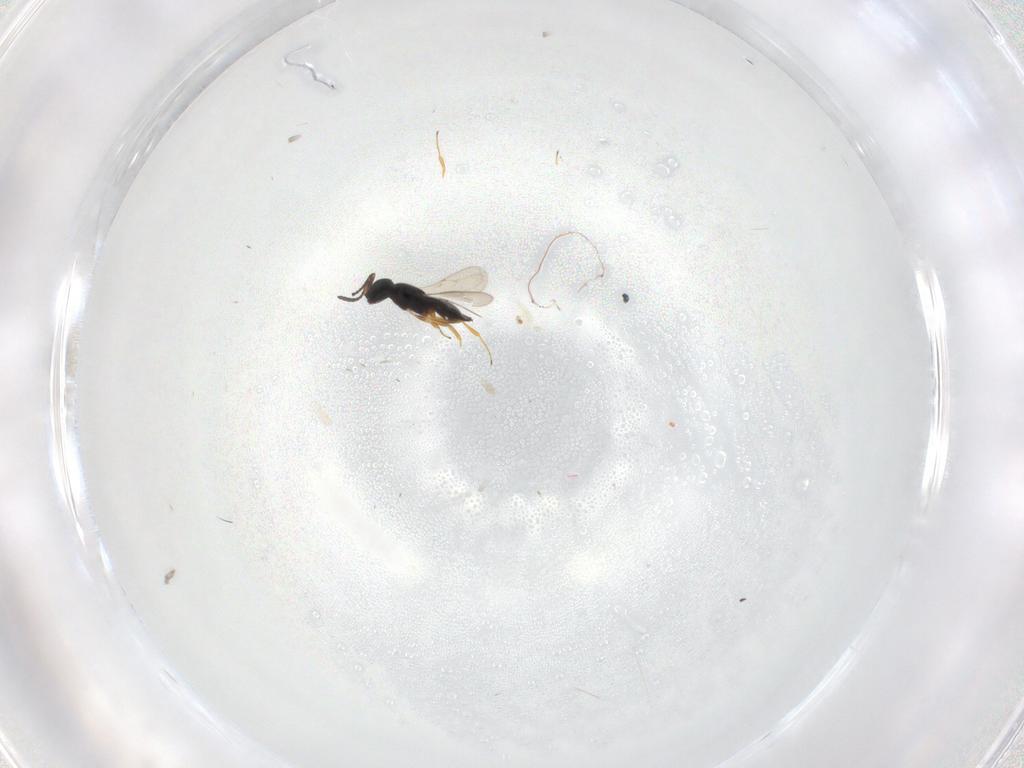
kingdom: Animalia
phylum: Arthropoda
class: Insecta
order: Hymenoptera
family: Scelionidae
